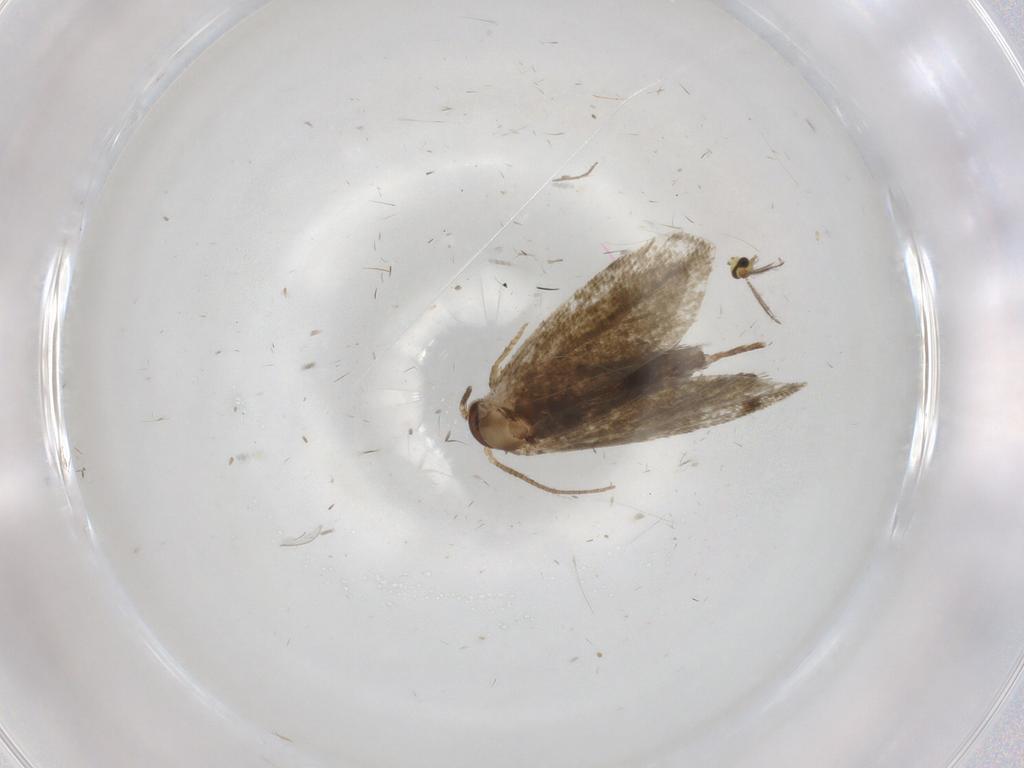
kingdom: Animalia
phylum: Arthropoda
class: Insecta
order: Lepidoptera
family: Tineidae
